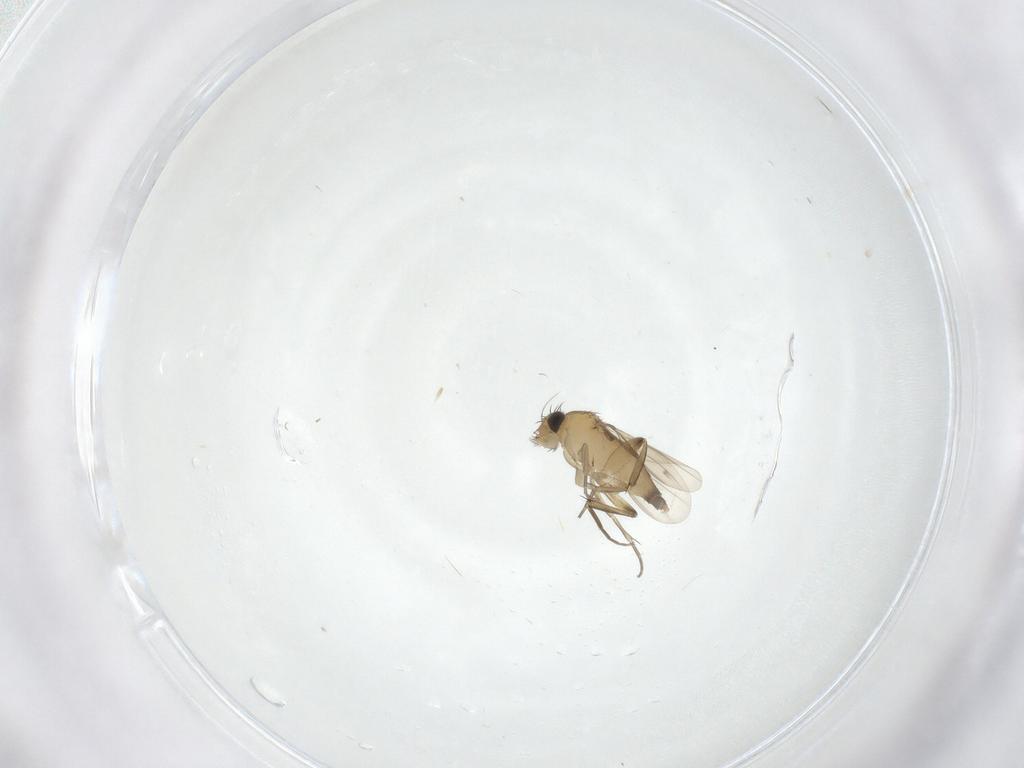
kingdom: Animalia
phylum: Arthropoda
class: Insecta
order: Diptera
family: Phoridae
